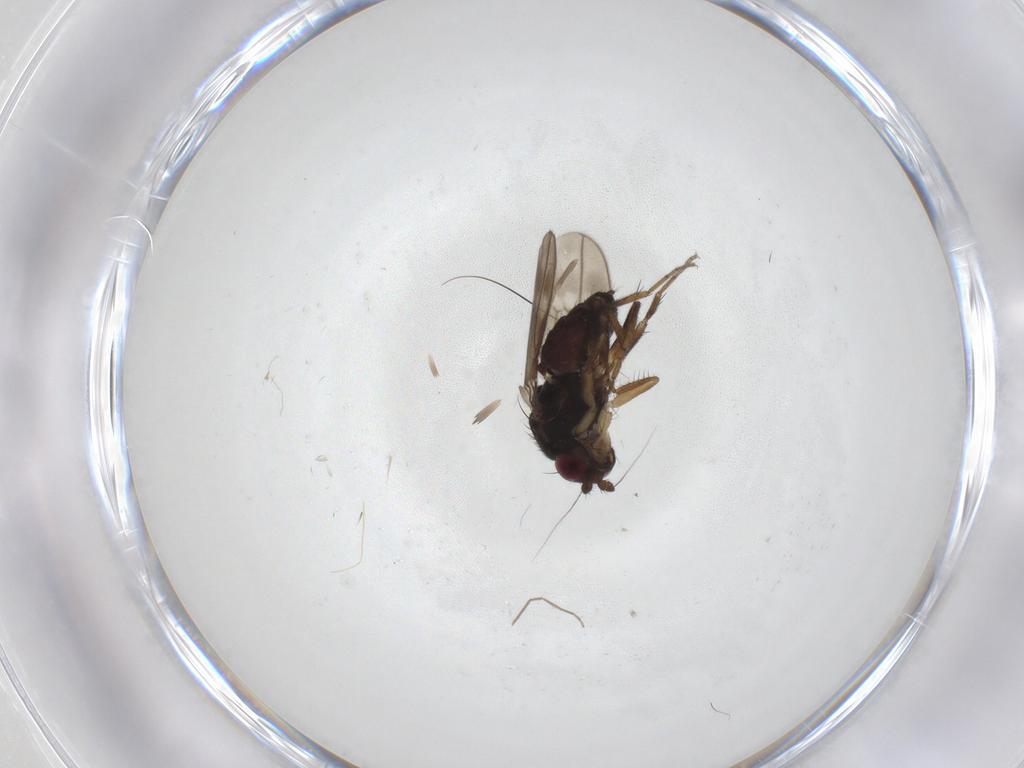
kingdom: Animalia
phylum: Arthropoda
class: Insecta
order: Diptera
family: Sphaeroceridae
